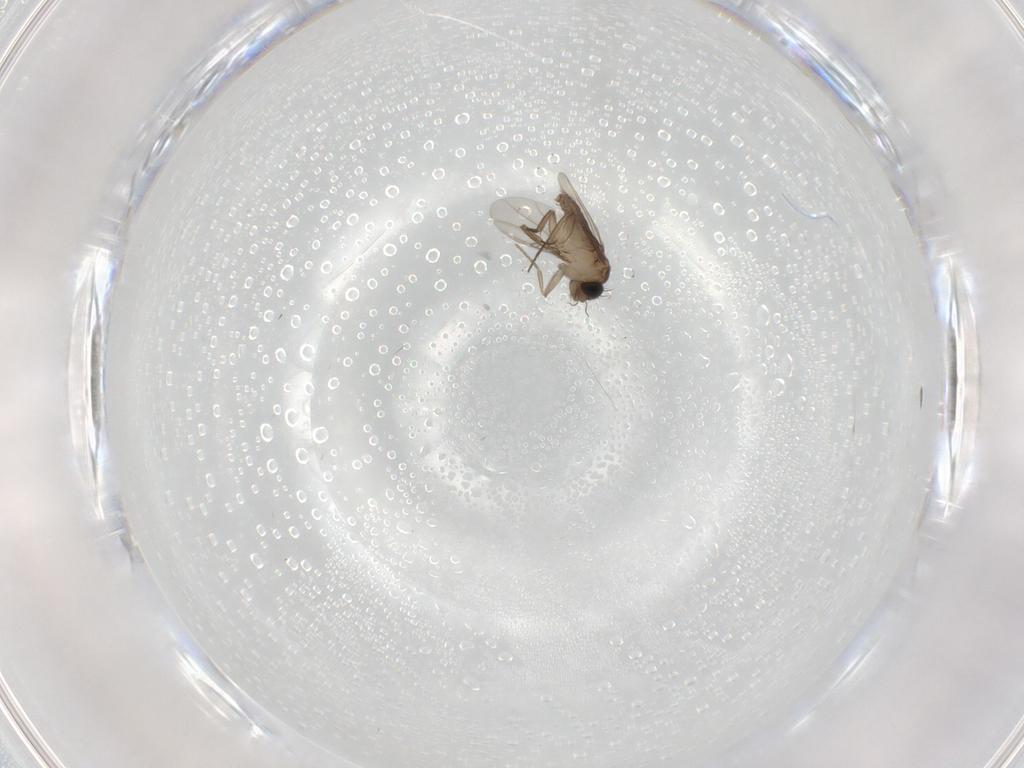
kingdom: Animalia
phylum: Arthropoda
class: Insecta
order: Diptera
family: Phoridae
